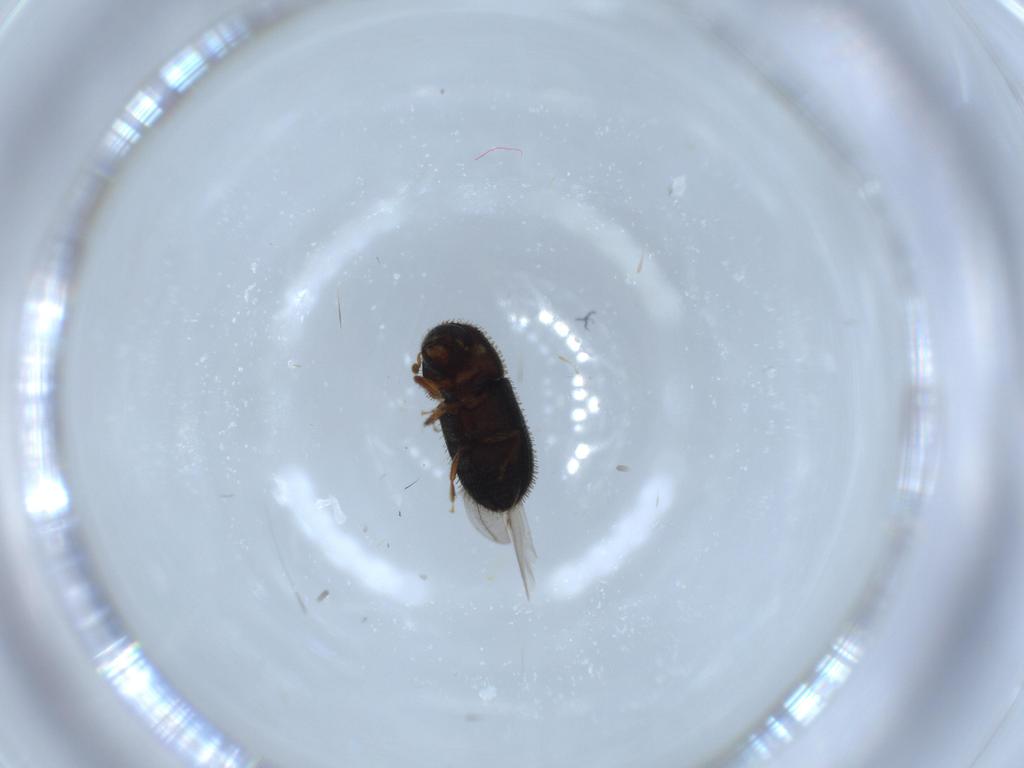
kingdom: Animalia
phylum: Arthropoda
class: Insecta
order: Coleoptera
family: Curculionidae
